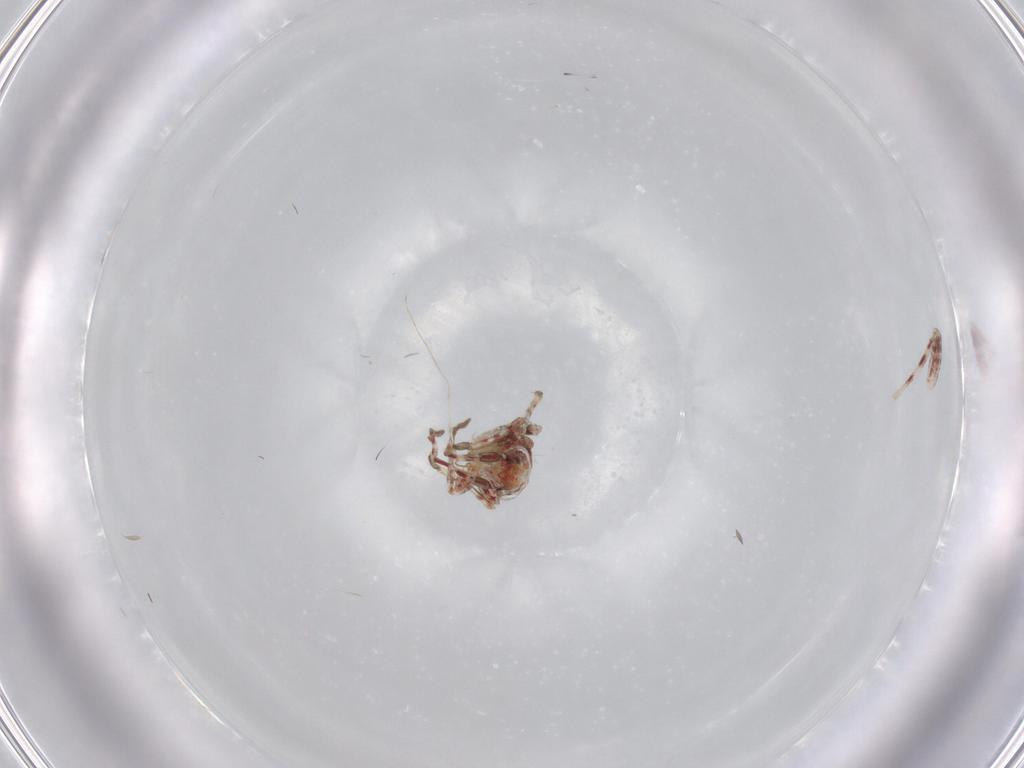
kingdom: Animalia
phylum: Arthropoda
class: Insecta
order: Hemiptera
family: Miridae
